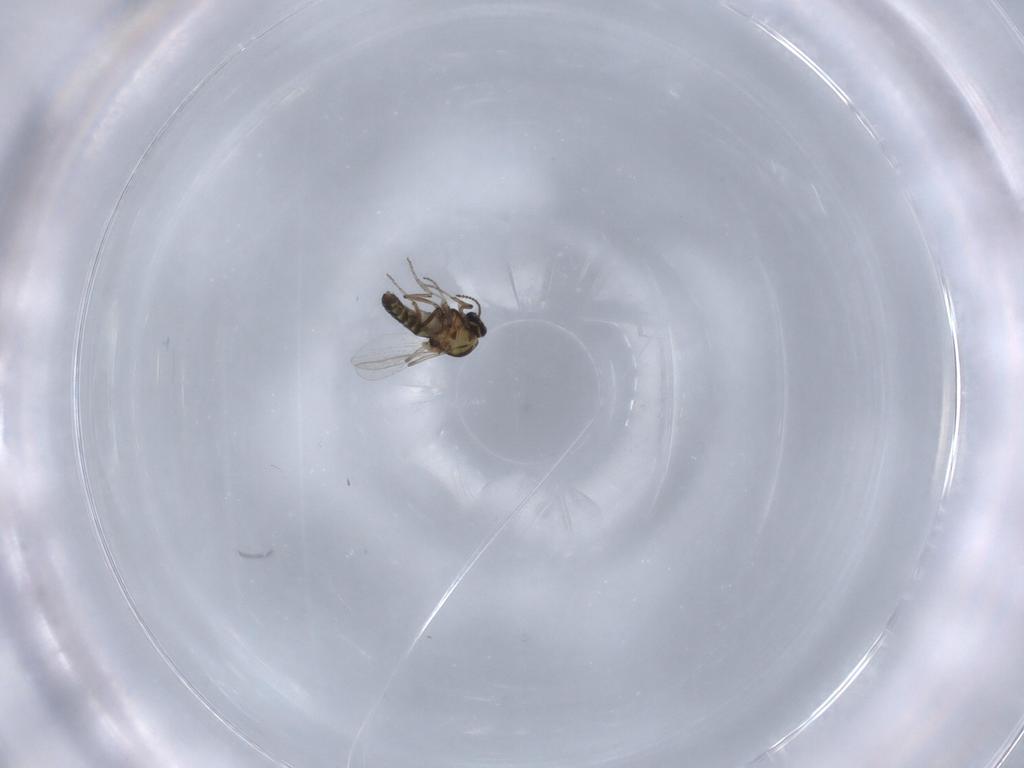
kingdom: Animalia
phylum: Arthropoda
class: Insecta
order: Diptera
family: Ceratopogonidae
